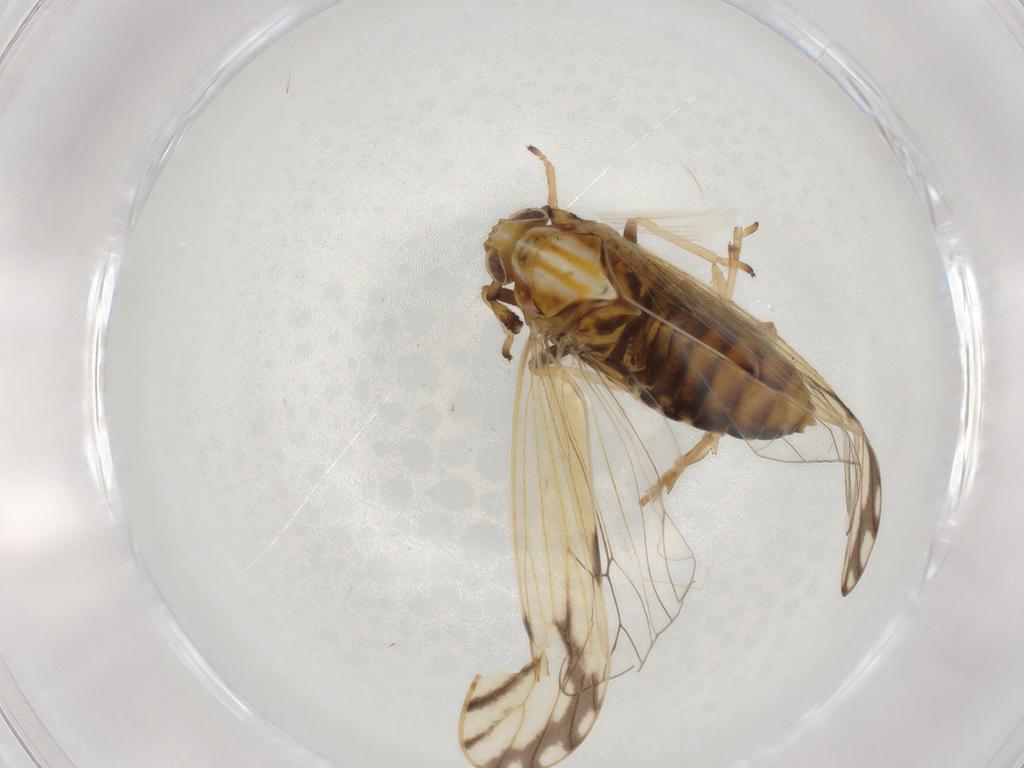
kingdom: Animalia
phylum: Arthropoda
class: Insecta
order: Hemiptera
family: Delphacidae
